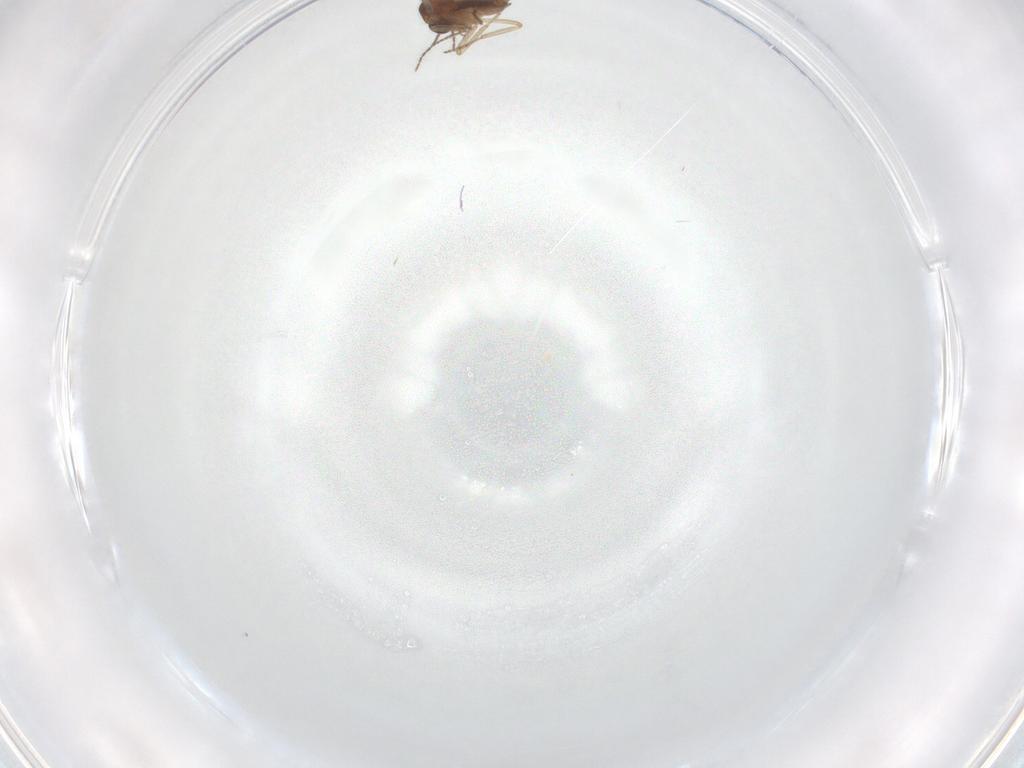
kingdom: Animalia
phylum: Arthropoda
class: Insecta
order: Diptera
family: Ceratopogonidae
